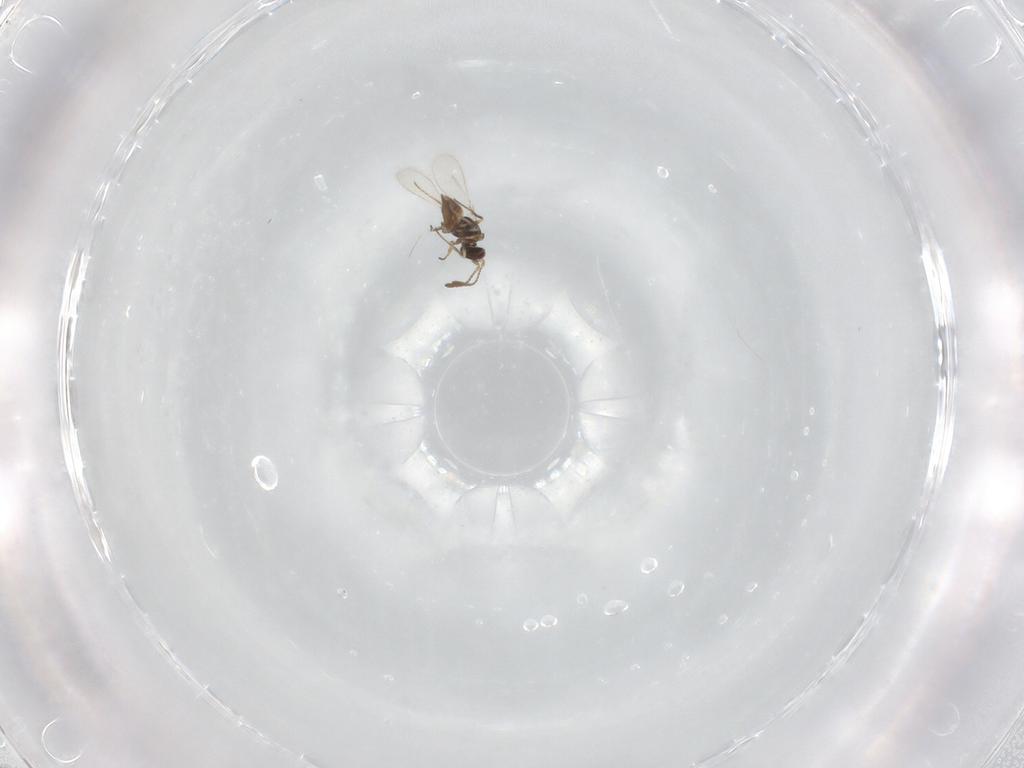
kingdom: Animalia
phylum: Arthropoda
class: Insecta
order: Hymenoptera
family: Mymaridae
